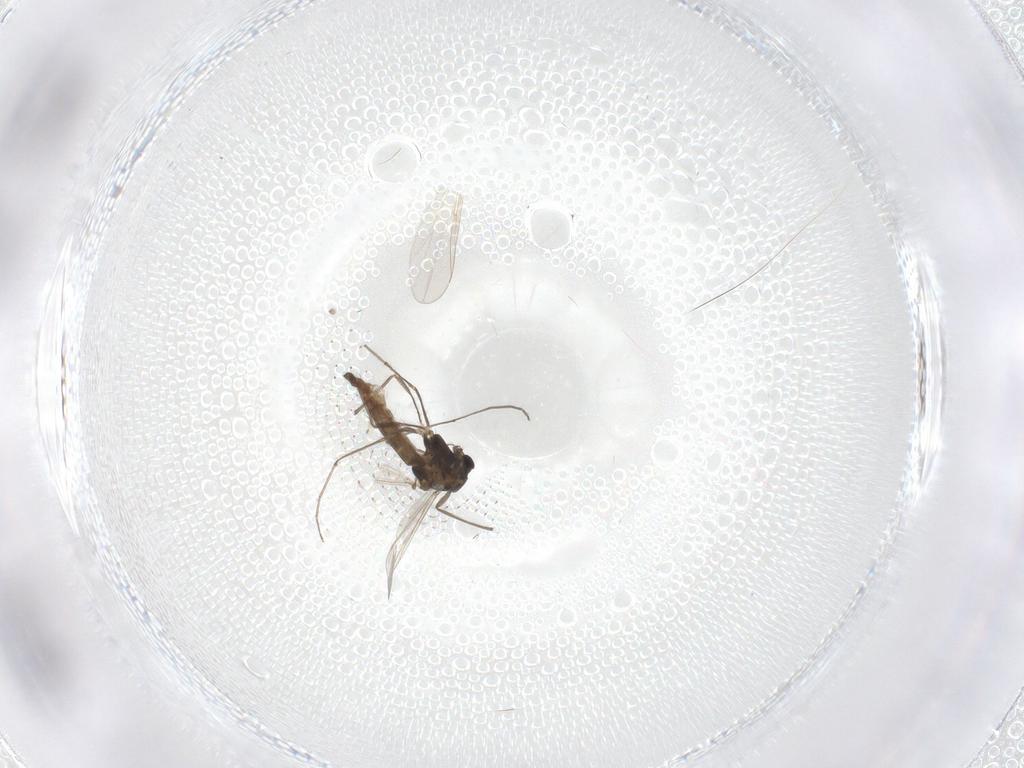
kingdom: Animalia
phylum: Arthropoda
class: Insecta
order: Diptera
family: Chironomidae
